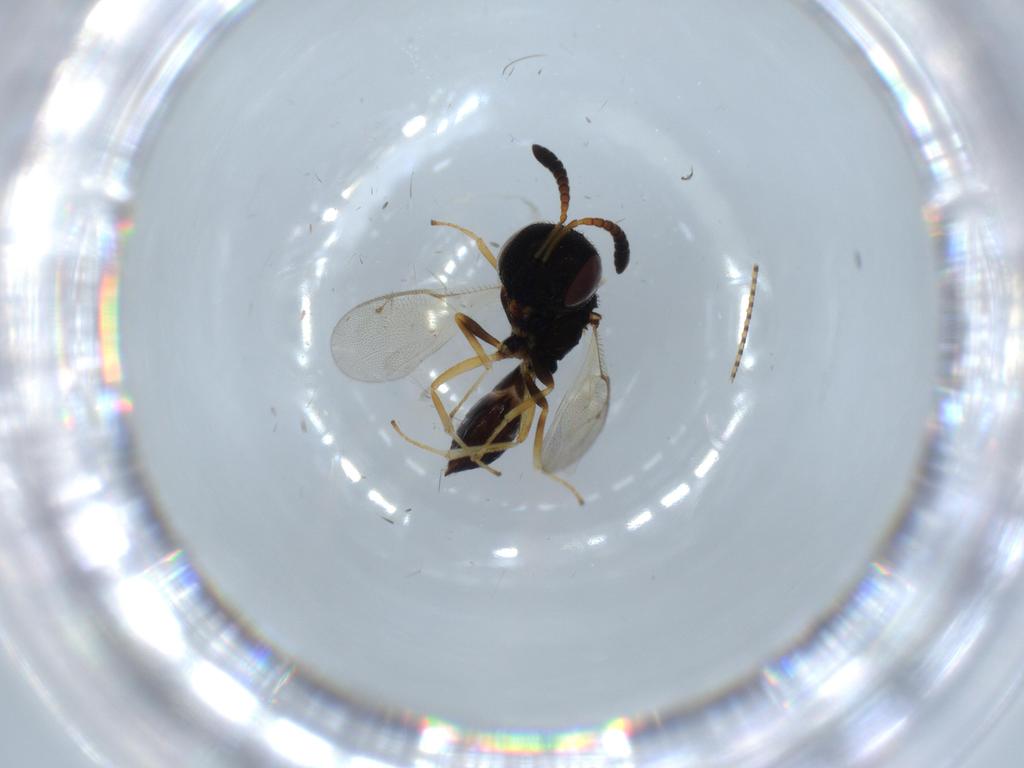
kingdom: Animalia
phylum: Arthropoda
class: Insecta
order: Hymenoptera
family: Pteromalidae
